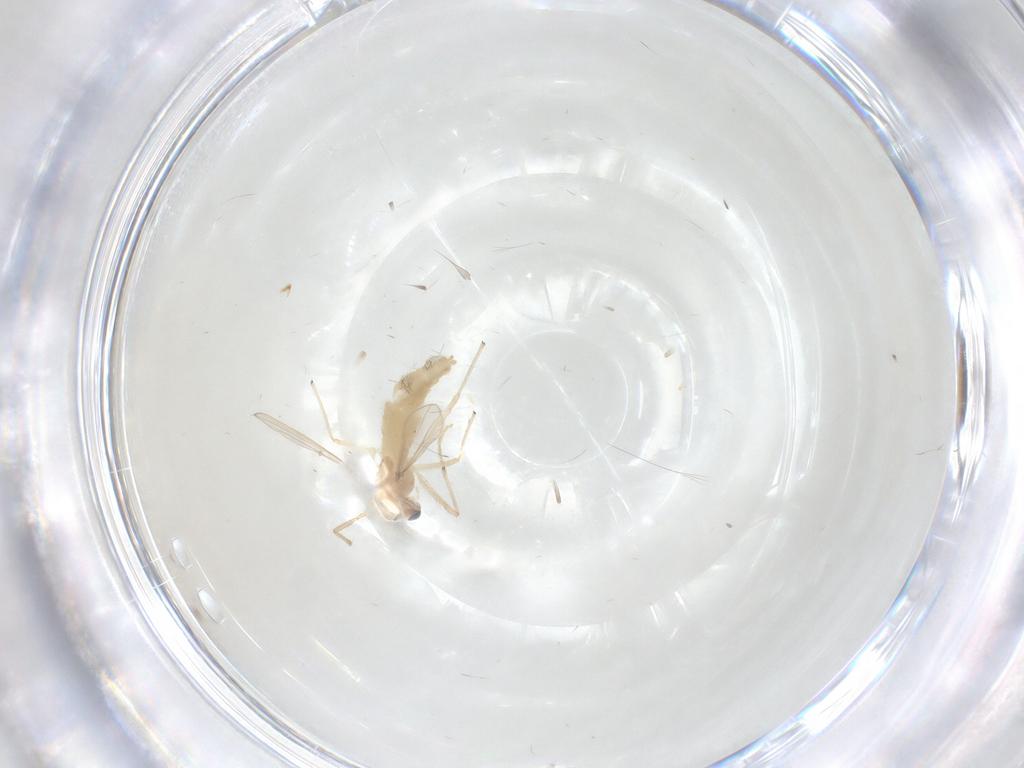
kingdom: Animalia
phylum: Arthropoda
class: Insecta
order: Diptera
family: Chironomidae
